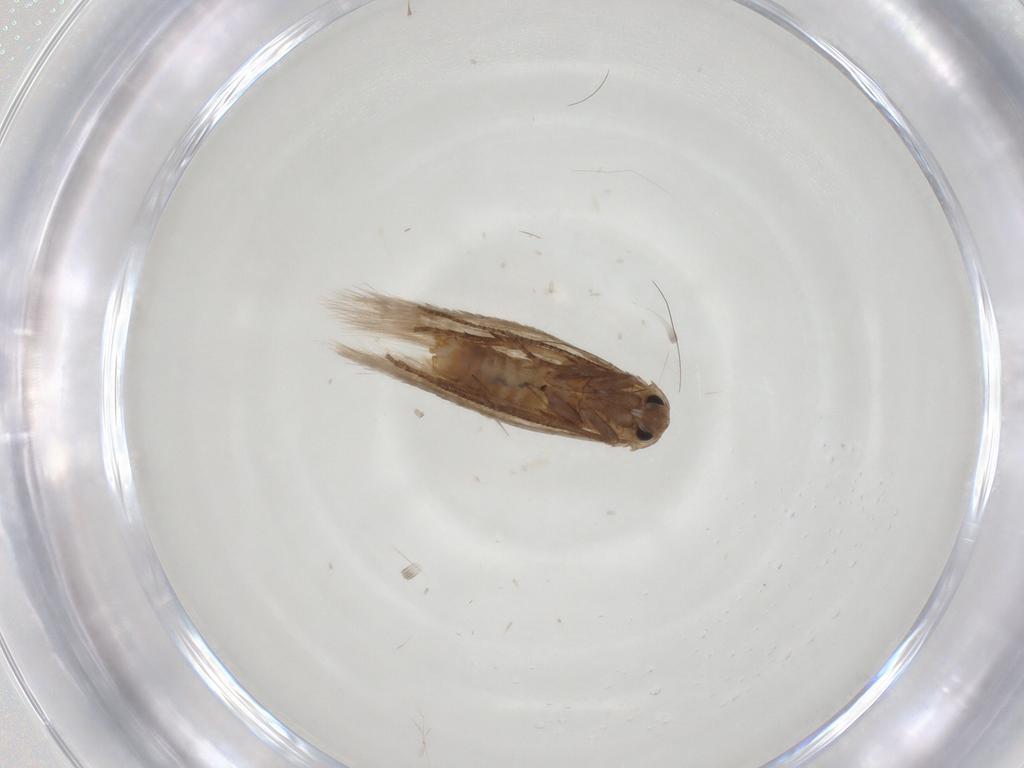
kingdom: Animalia
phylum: Arthropoda
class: Insecta
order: Lepidoptera
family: Bucculatricidae
